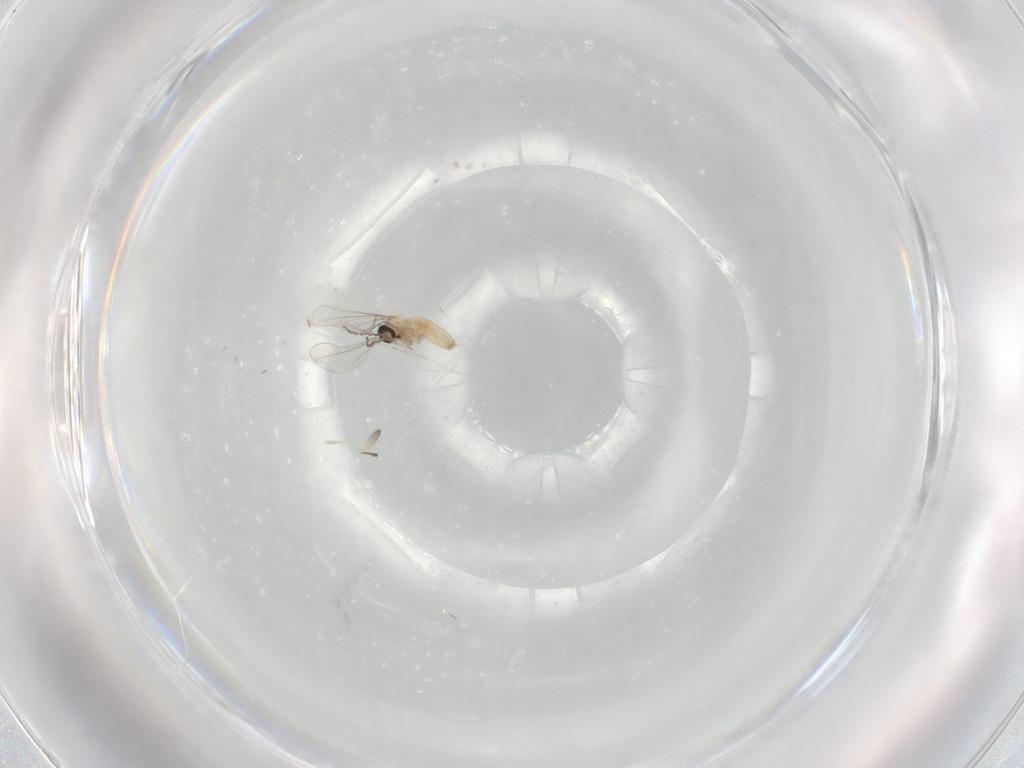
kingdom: Animalia
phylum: Arthropoda
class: Insecta
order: Diptera
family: Cecidomyiidae
